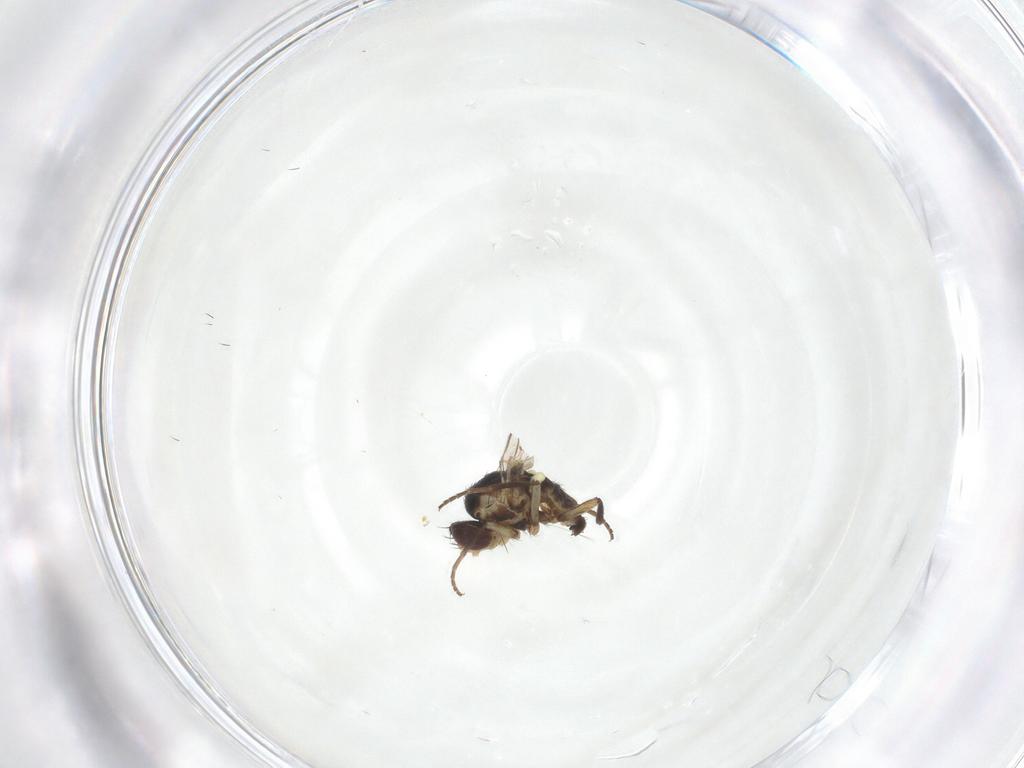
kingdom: Animalia
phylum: Arthropoda
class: Insecta
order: Diptera
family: Agromyzidae
